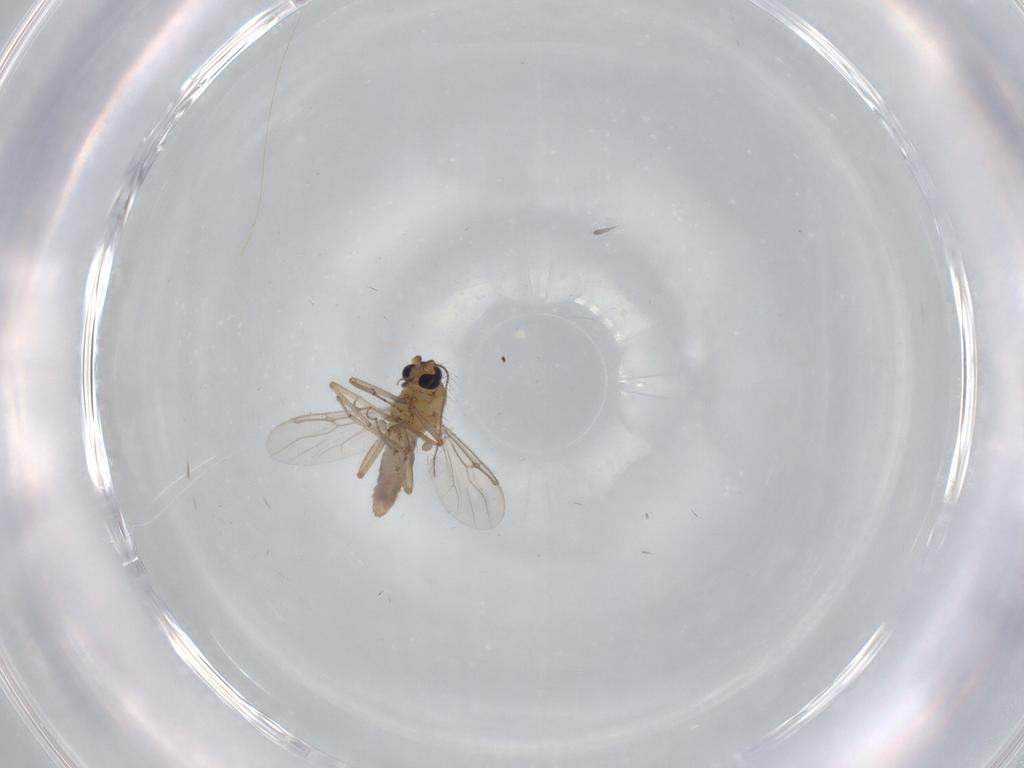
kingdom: Animalia
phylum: Arthropoda
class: Insecta
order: Diptera
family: Ceratopogonidae
